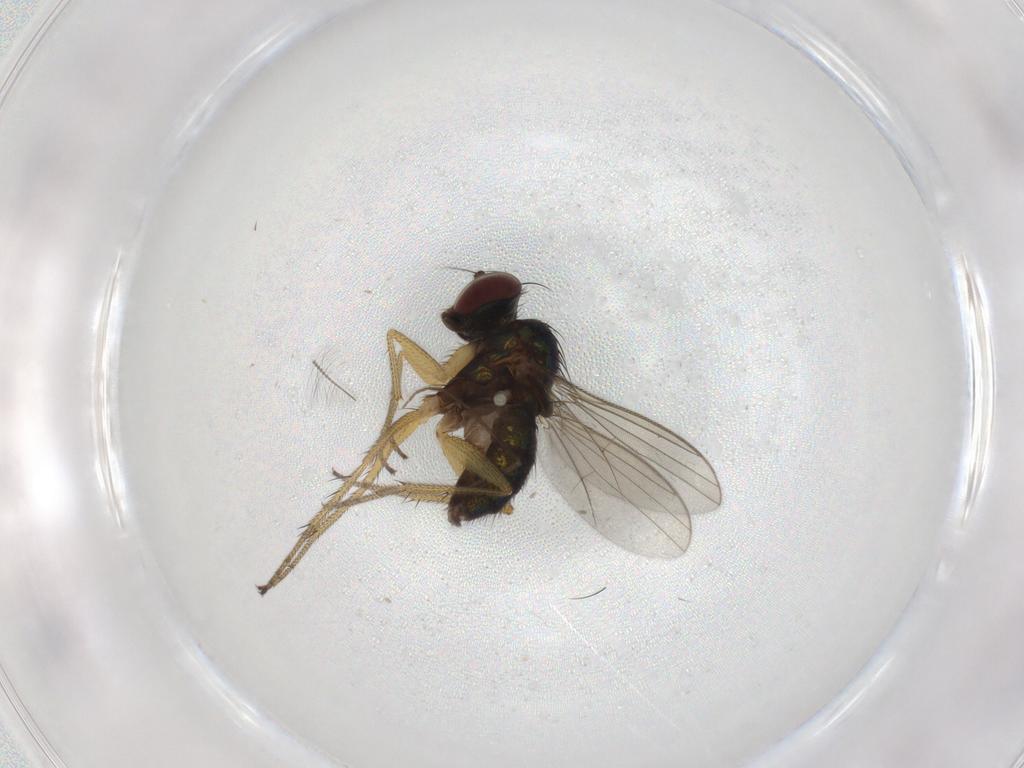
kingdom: Animalia
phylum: Arthropoda
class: Insecta
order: Diptera
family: Dolichopodidae
